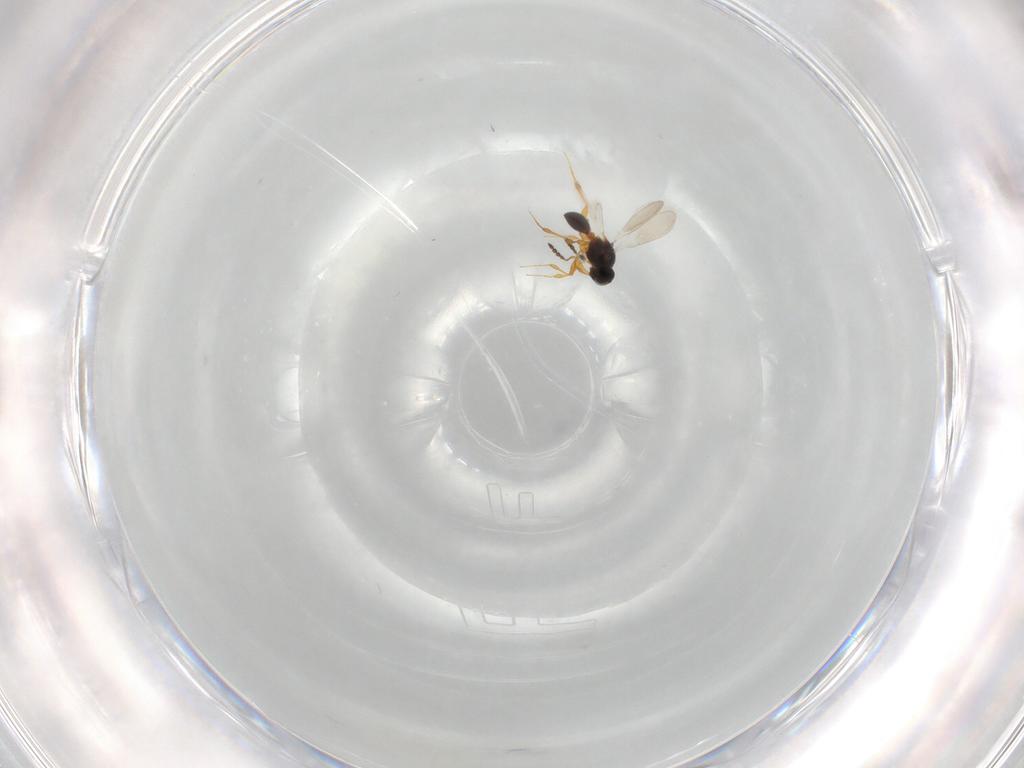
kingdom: Animalia
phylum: Arthropoda
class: Insecta
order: Hymenoptera
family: Platygastridae
